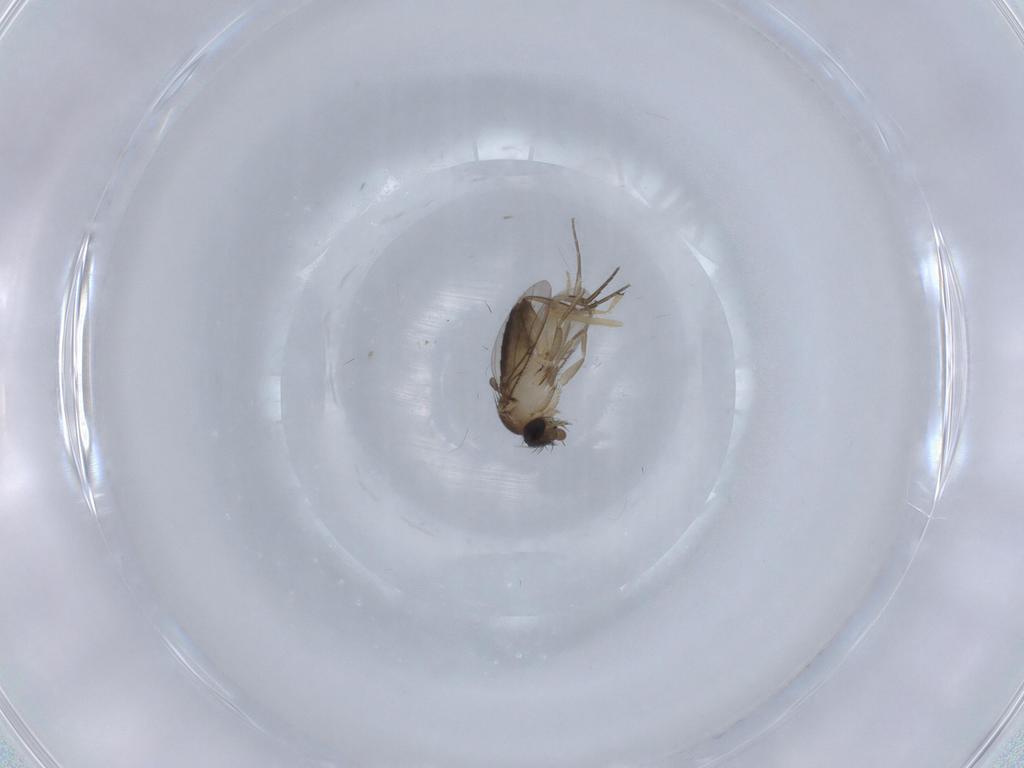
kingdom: Animalia
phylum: Arthropoda
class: Insecta
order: Diptera
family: Phoridae
